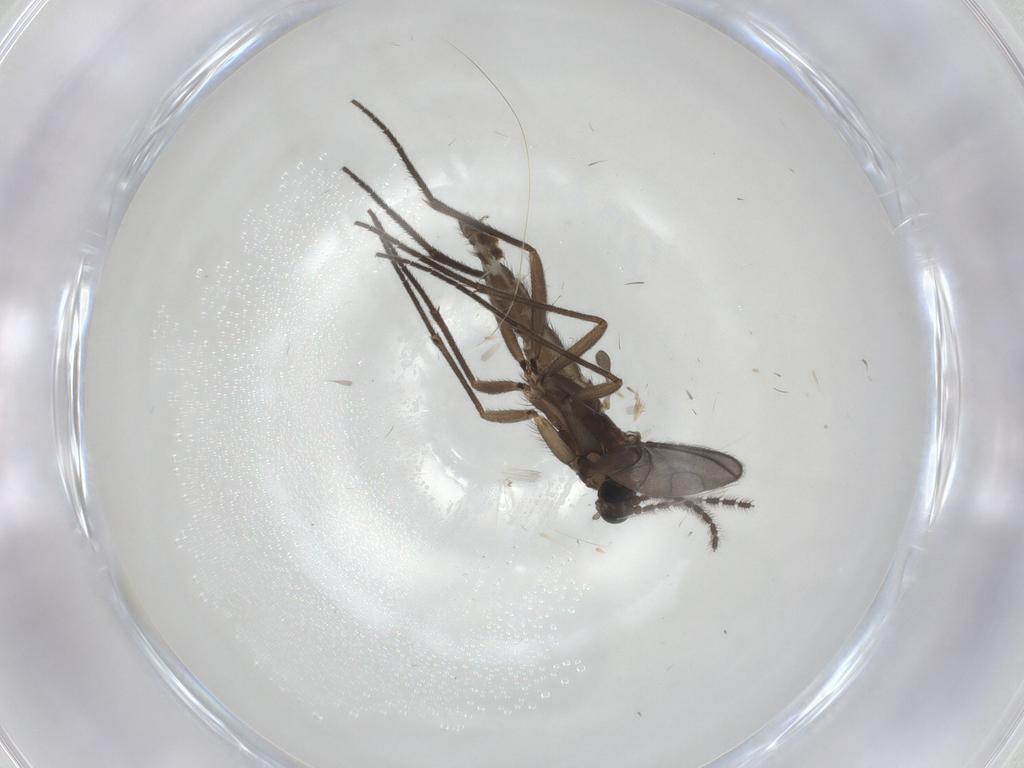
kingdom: Animalia
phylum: Arthropoda
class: Insecta
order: Diptera
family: Sciaridae
